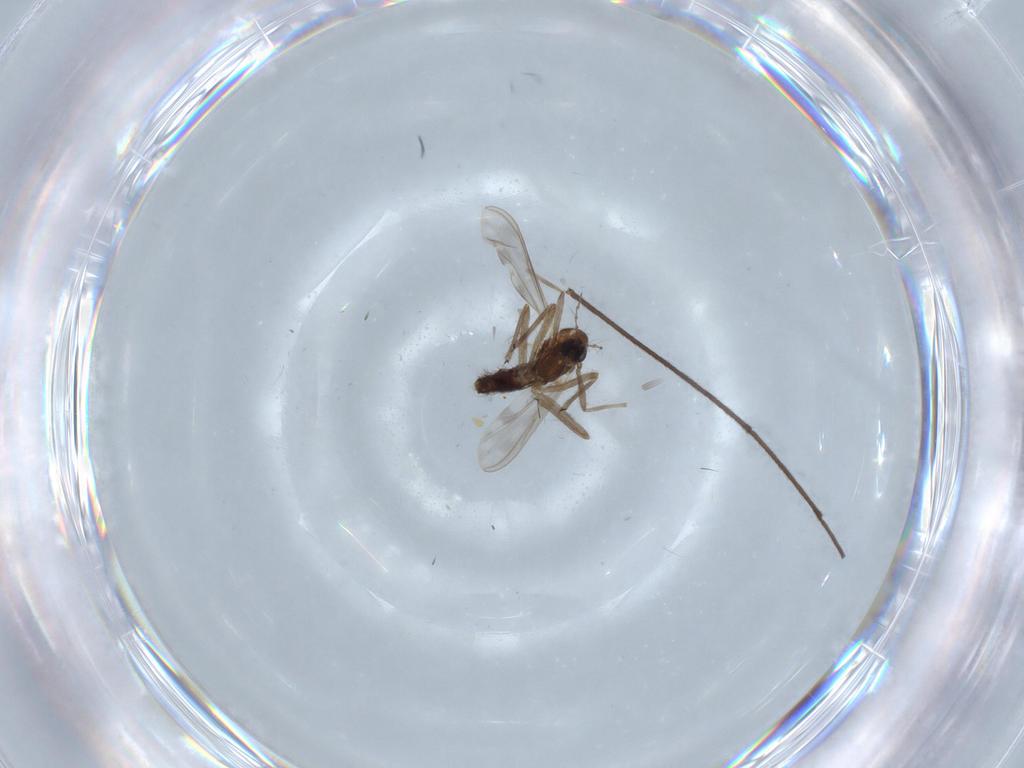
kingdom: Animalia
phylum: Arthropoda
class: Insecta
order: Diptera
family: Chironomidae
